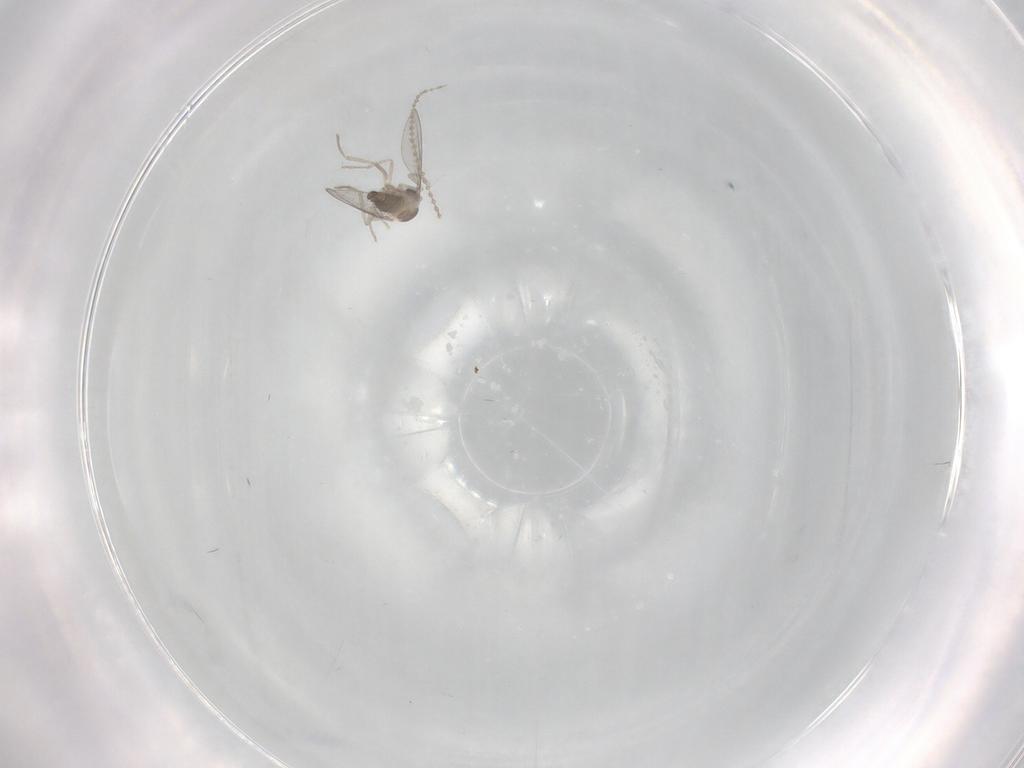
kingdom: Animalia
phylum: Arthropoda
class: Insecta
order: Diptera
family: Cecidomyiidae
